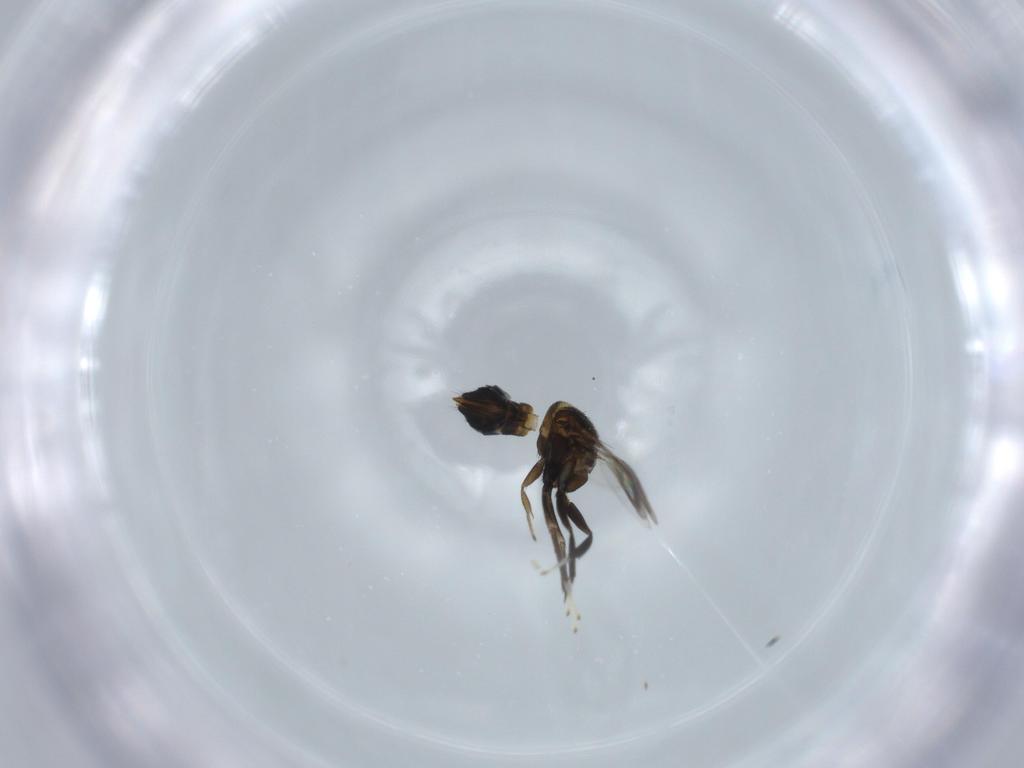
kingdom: Animalia
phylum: Arthropoda
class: Insecta
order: Hymenoptera
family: Aphelinidae
